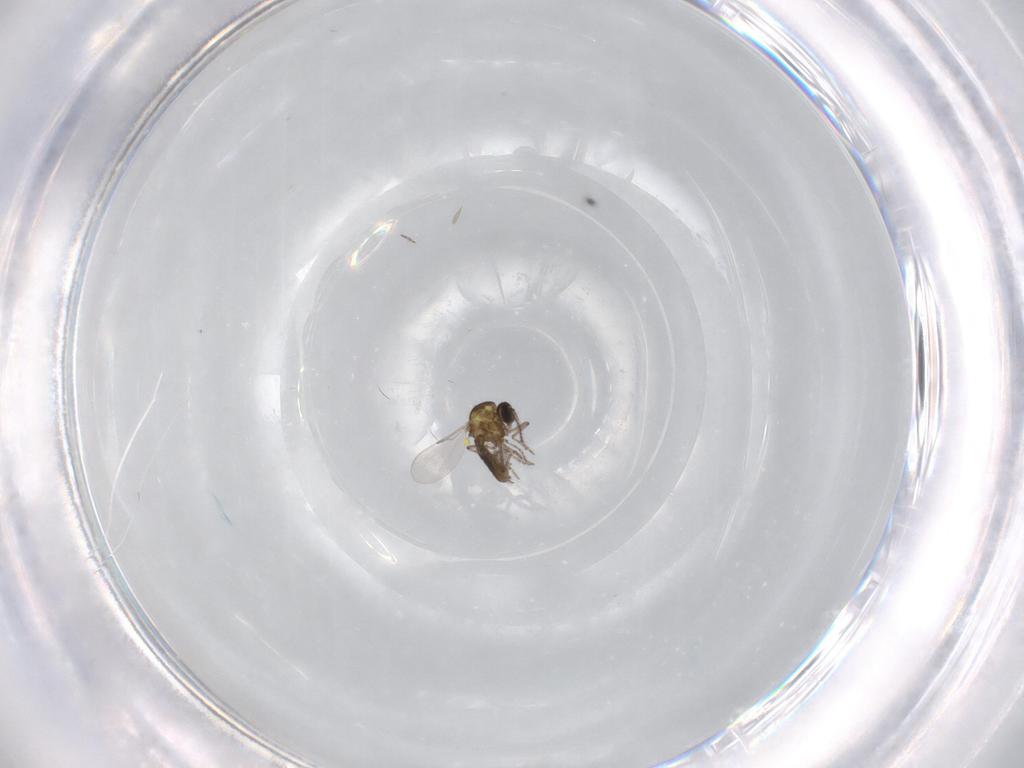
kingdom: Animalia
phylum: Arthropoda
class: Insecta
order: Diptera
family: Ceratopogonidae
